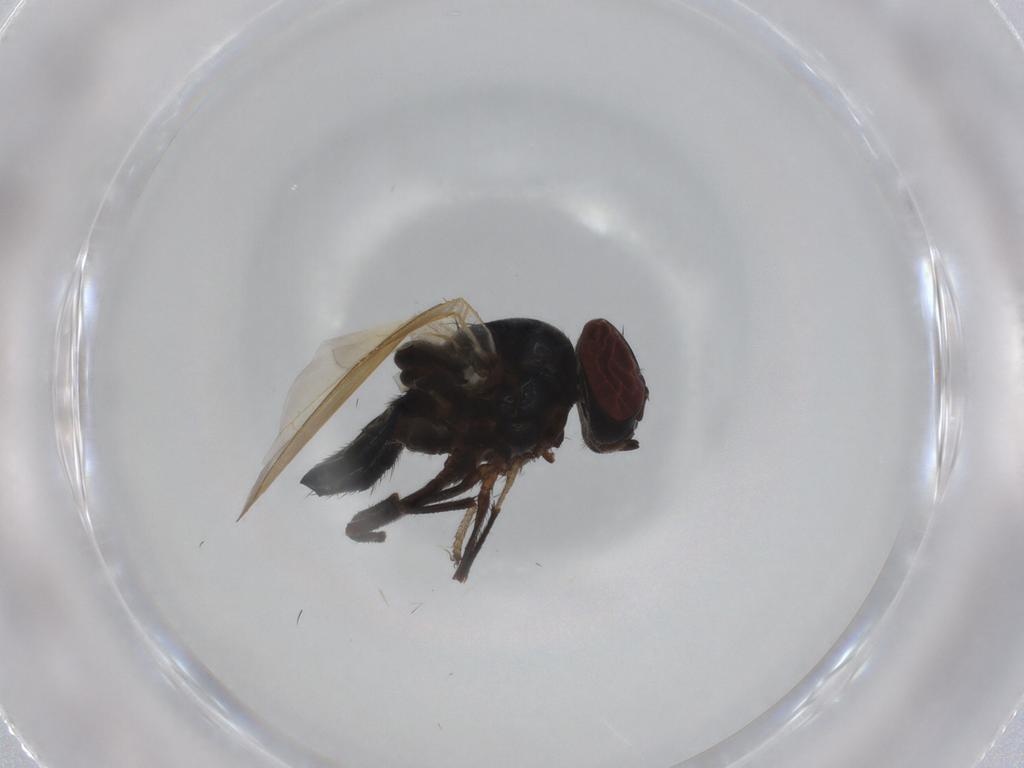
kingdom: Animalia
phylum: Arthropoda
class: Insecta
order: Diptera
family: Lonchaeidae
